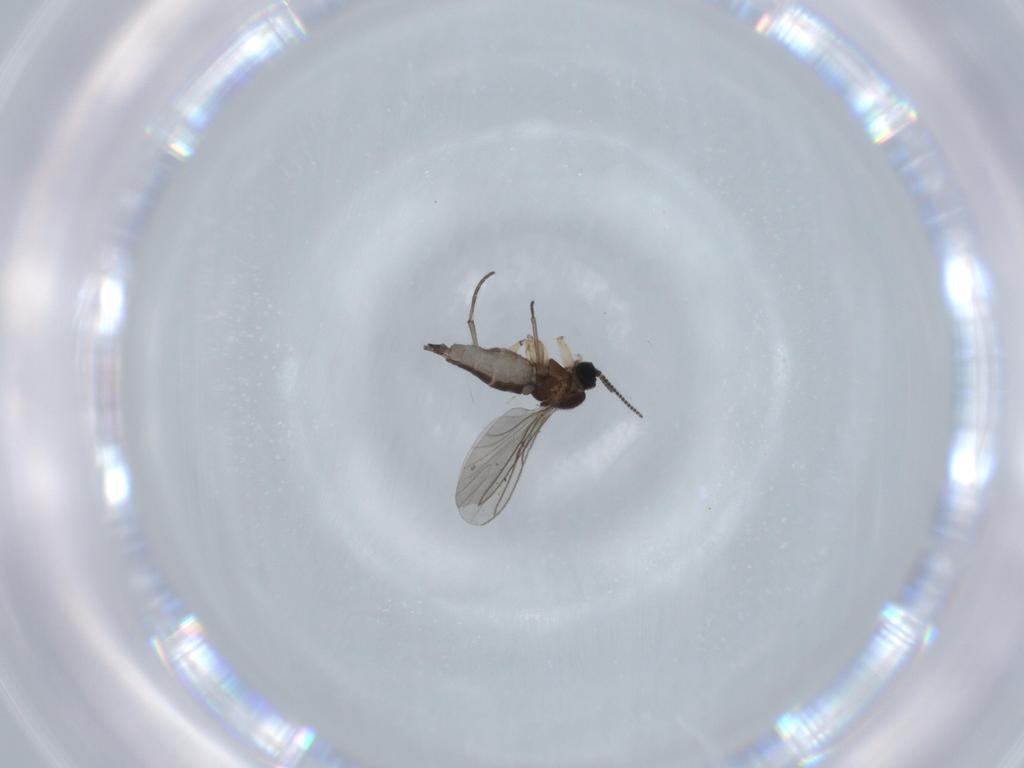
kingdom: Animalia
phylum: Arthropoda
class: Insecta
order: Diptera
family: Sciaridae
